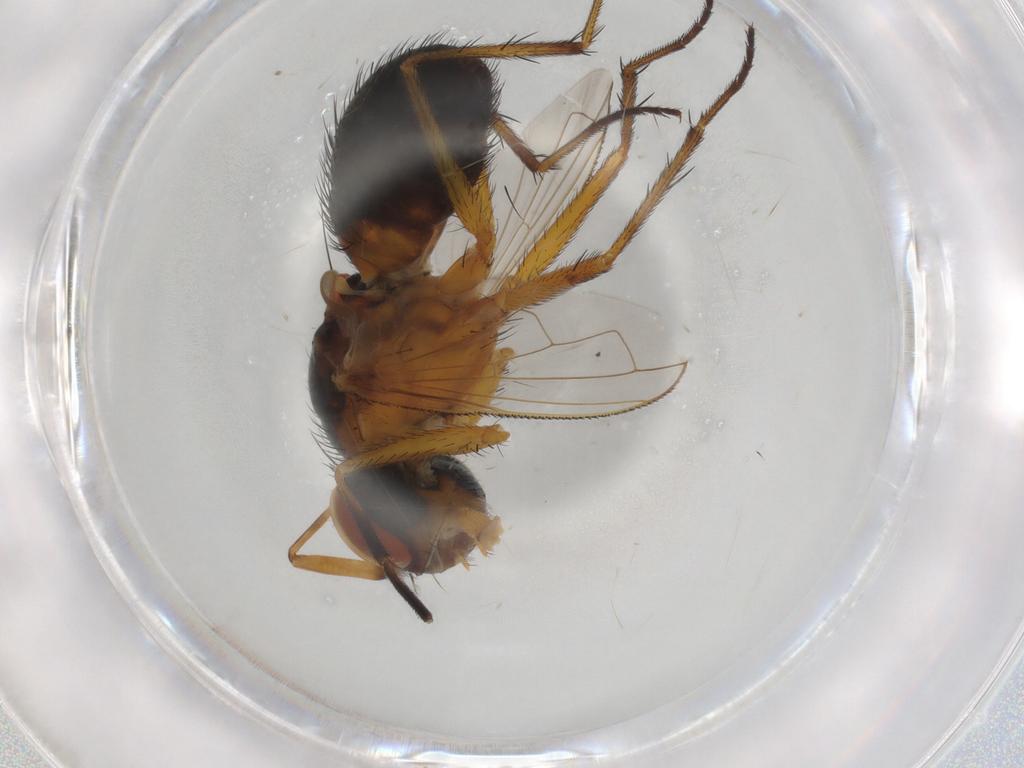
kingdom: Animalia
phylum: Arthropoda
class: Insecta
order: Diptera
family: Tachinidae
